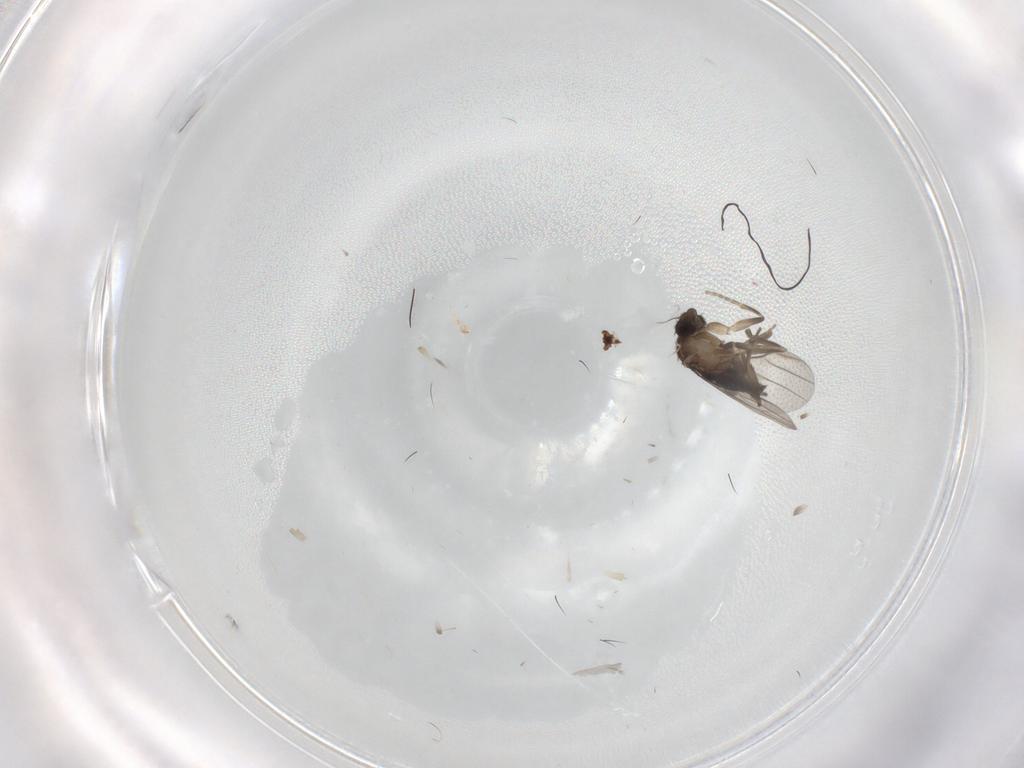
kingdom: Animalia
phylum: Arthropoda
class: Insecta
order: Diptera
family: Phoridae
